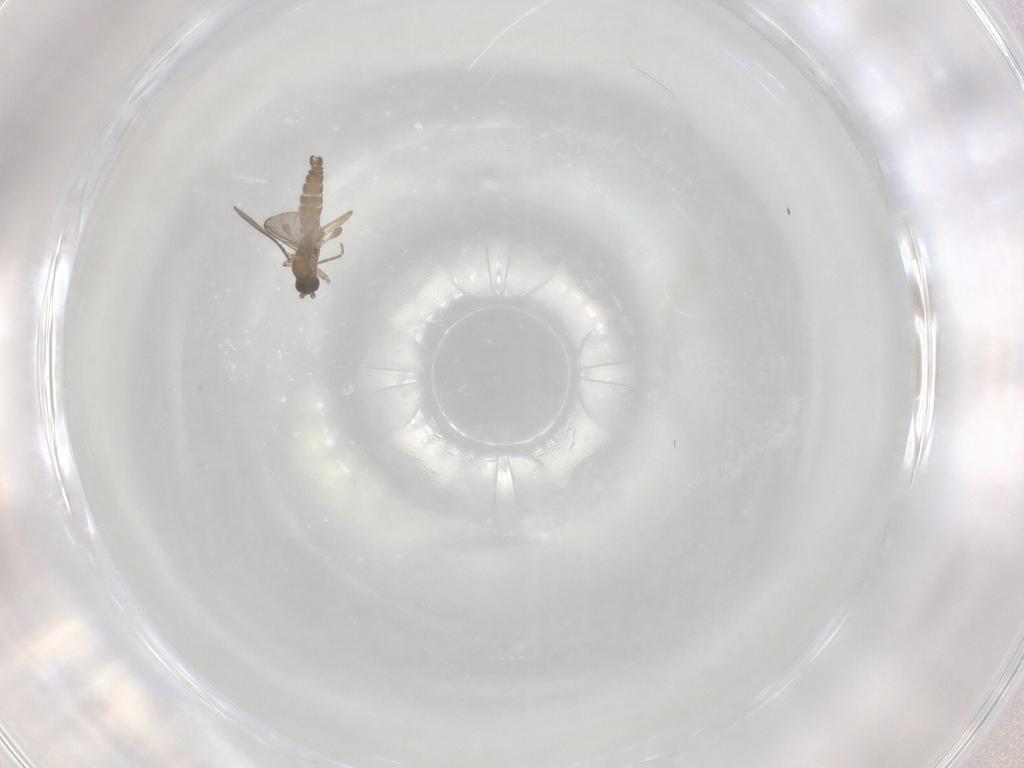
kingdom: Animalia
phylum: Arthropoda
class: Insecta
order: Diptera
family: Sciaridae
